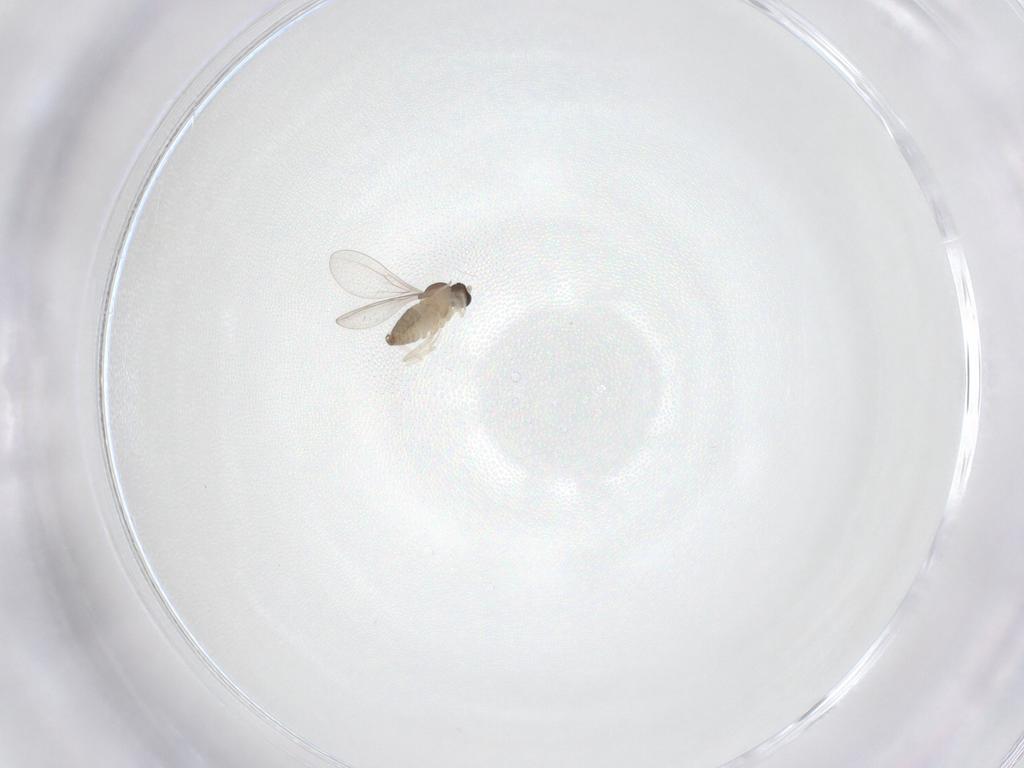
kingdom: Animalia
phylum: Arthropoda
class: Insecta
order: Diptera
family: Cecidomyiidae
